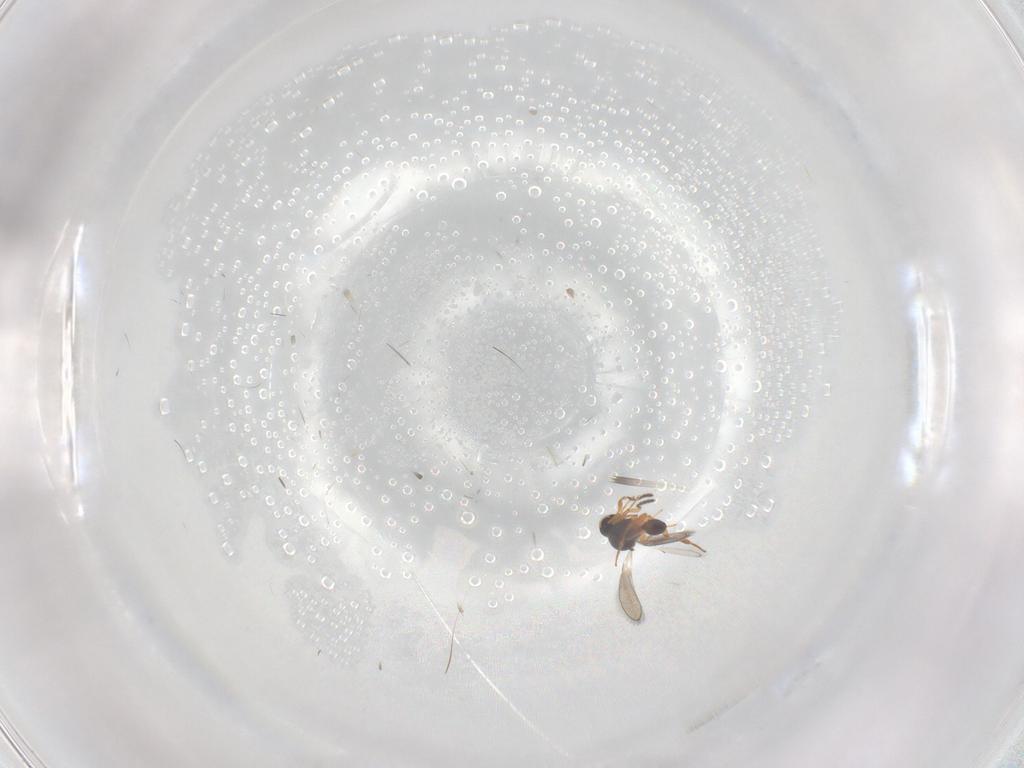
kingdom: Animalia
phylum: Arthropoda
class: Insecta
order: Hymenoptera
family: Platygastridae
